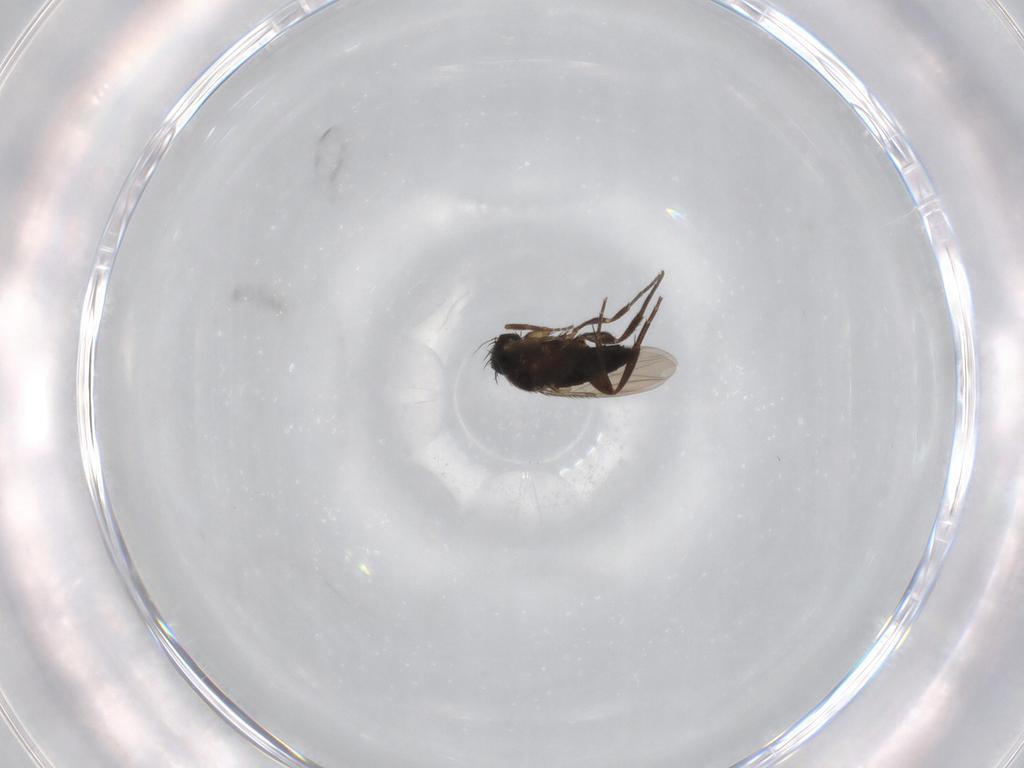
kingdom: Animalia
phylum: Arthropoda
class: Insecta
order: Diptera
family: Phoridae
